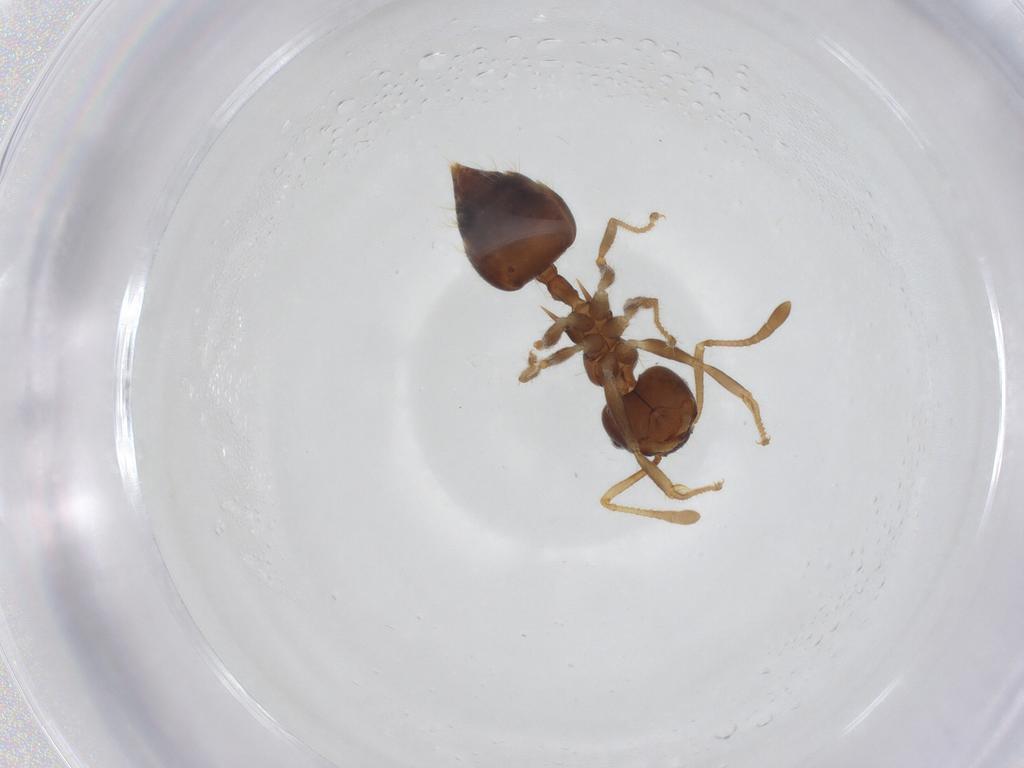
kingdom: Animalia
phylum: Arthropoda
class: Insecta
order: Hymenoptera
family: Formicidae
